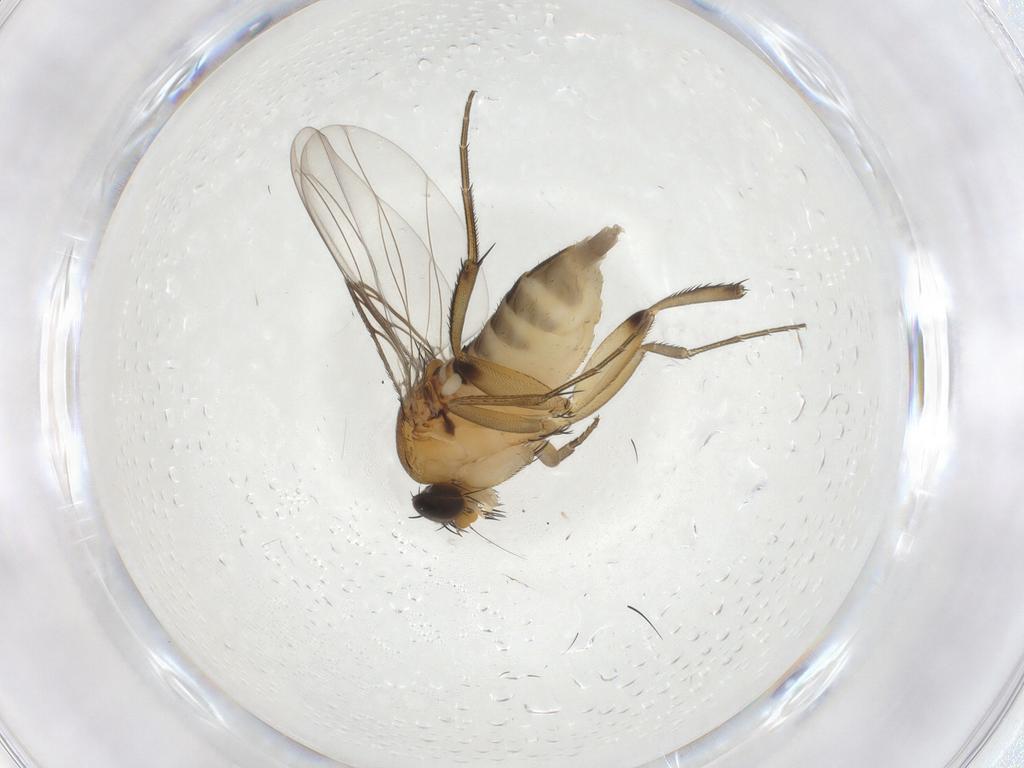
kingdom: Animalia
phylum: Arthropoda
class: Insecta
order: Diptera
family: Phoridae
